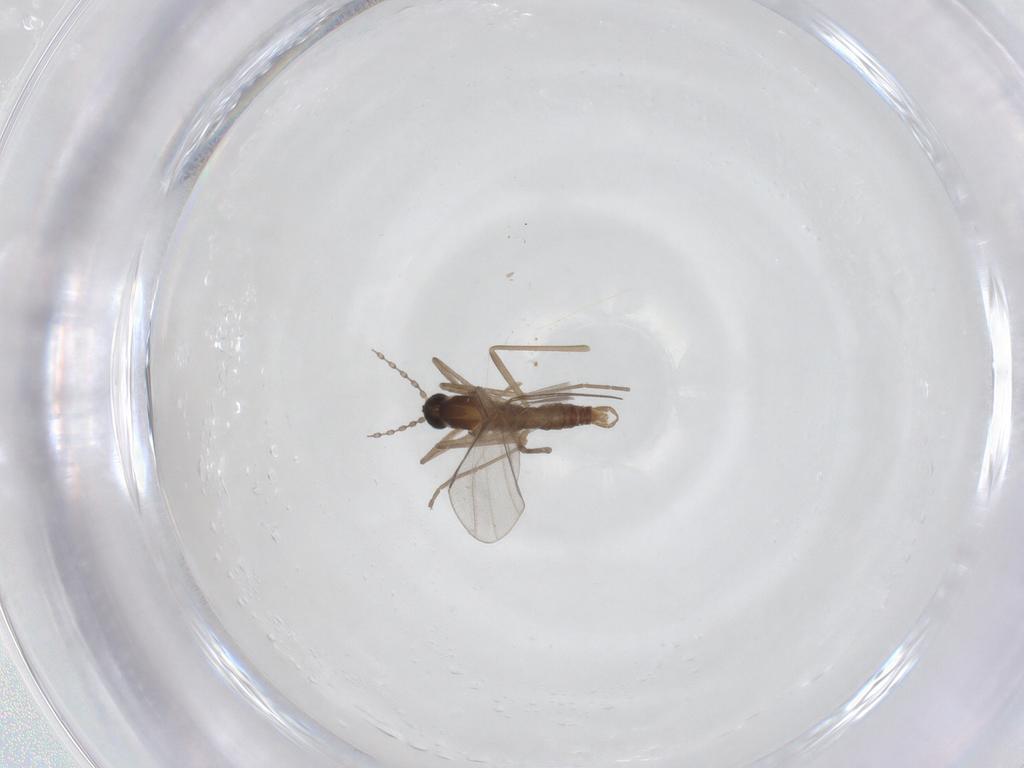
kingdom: Animalia
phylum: Arthropoda
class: Insecta
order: Diptera
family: Cecidomyiidae
